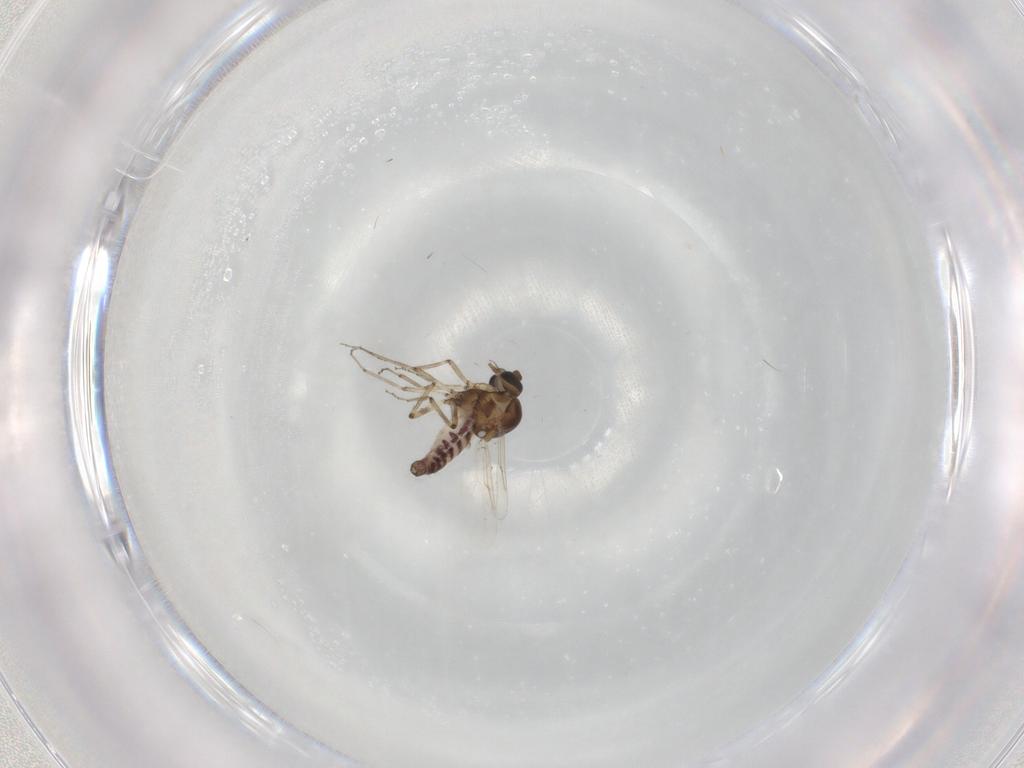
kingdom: Animalia
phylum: Arthropoda
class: Insecta
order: Diptera
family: Ceratopogonidae
